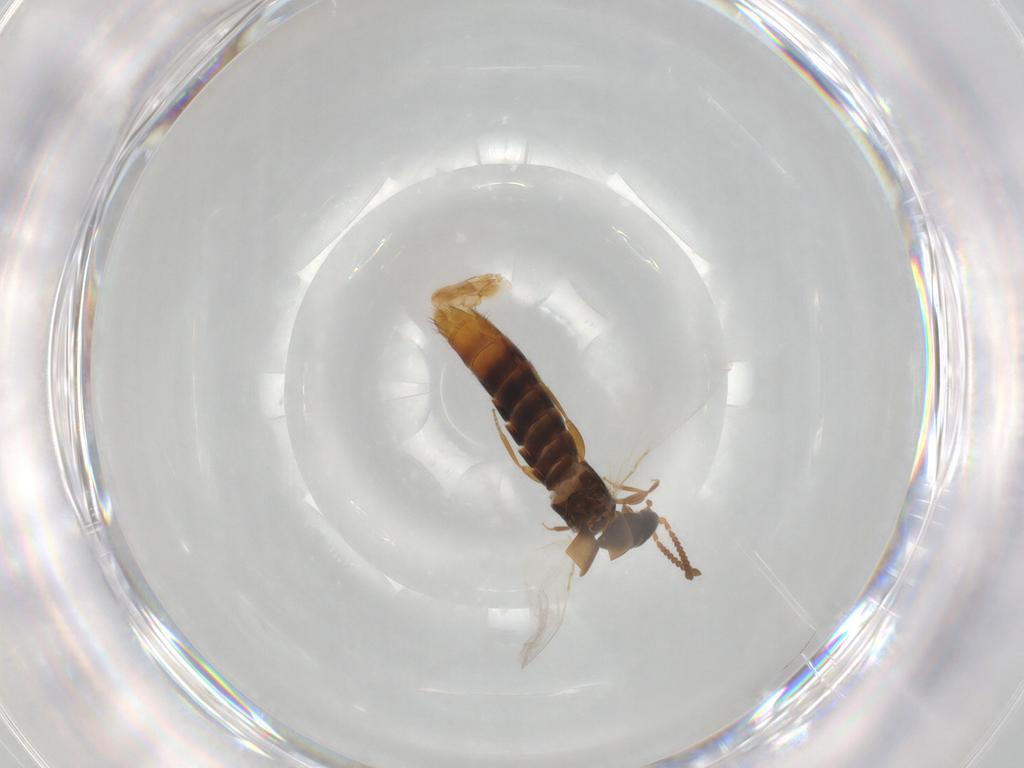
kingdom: Animalia
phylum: Arthropoda
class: Insecta
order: Coleoptera
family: Staphylinidae
